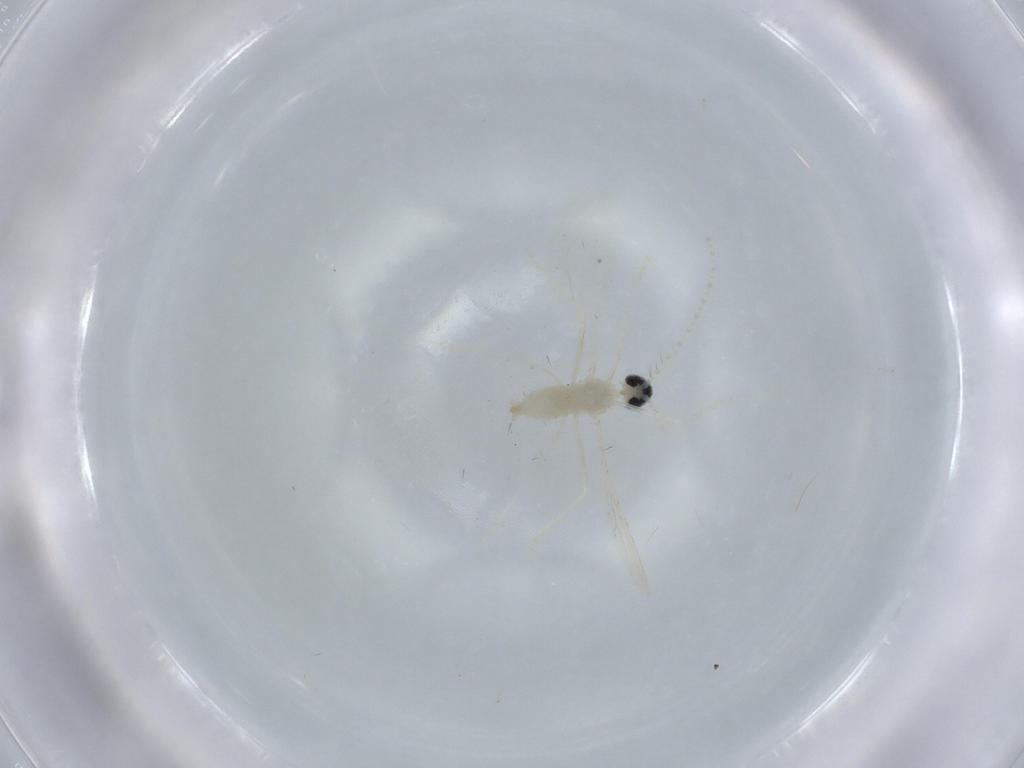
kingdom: Animalia
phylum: Arthropoda
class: Insecta
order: Diptera
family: Cecidomyiidae
